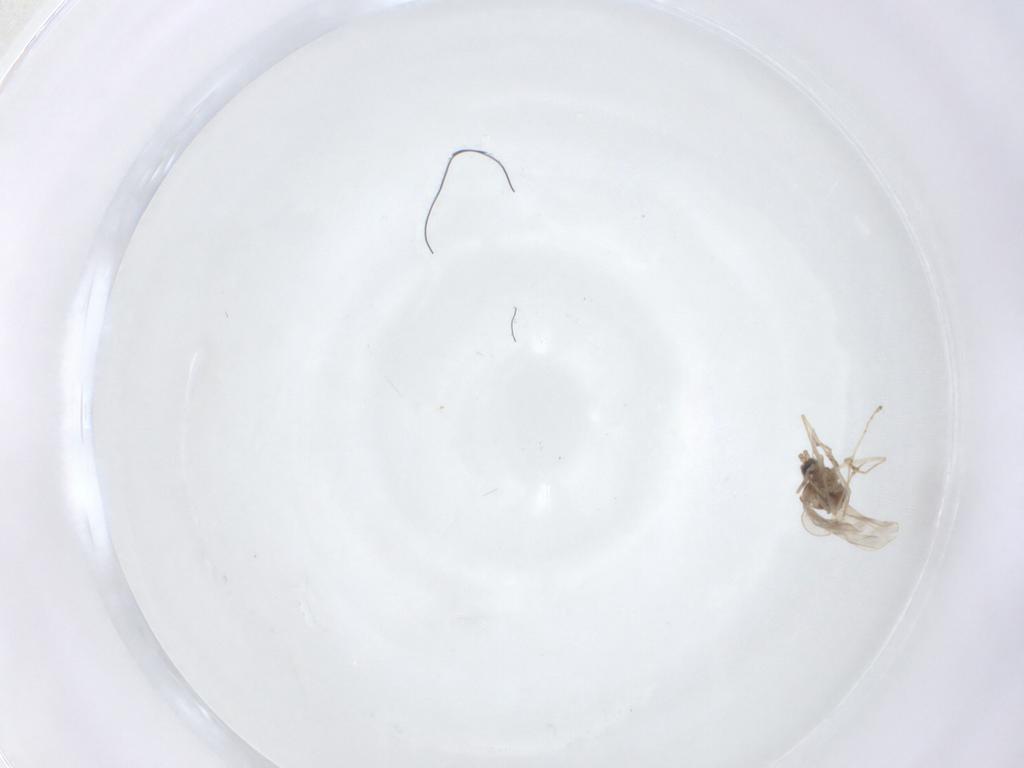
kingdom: Animalia
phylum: Arthropoda
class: Insecta
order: Diptera
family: Cecidomyiidae
